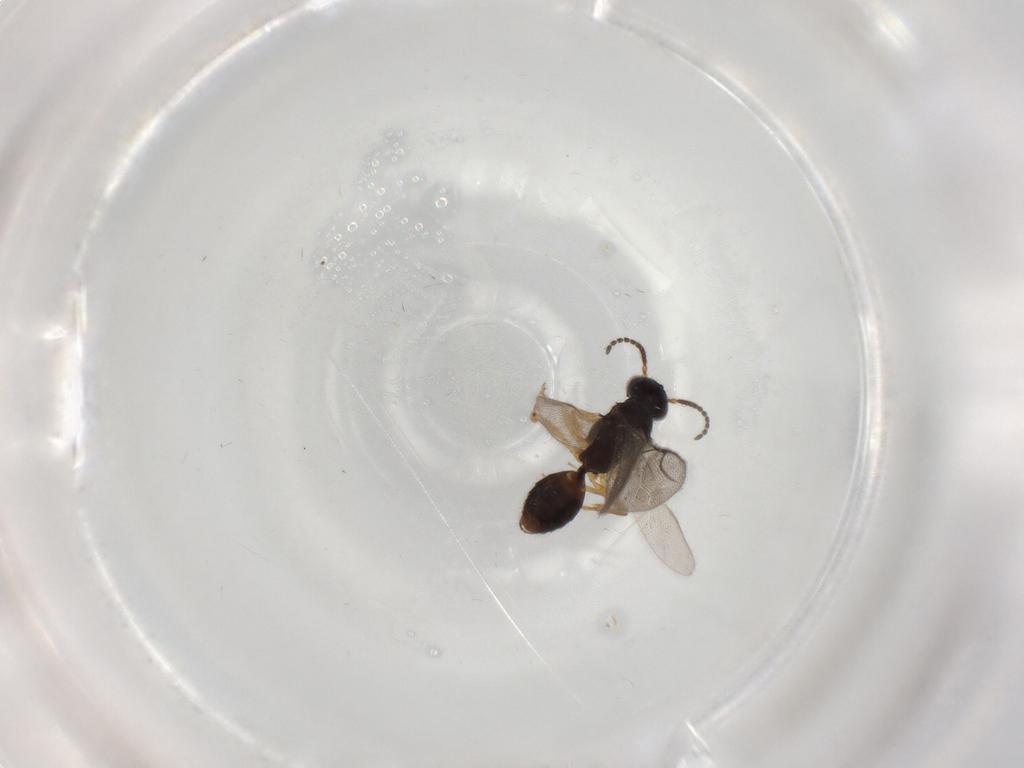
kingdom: Animalia
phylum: Arthropoda
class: Insecta
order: Hymenoptera
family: Bethylidae
